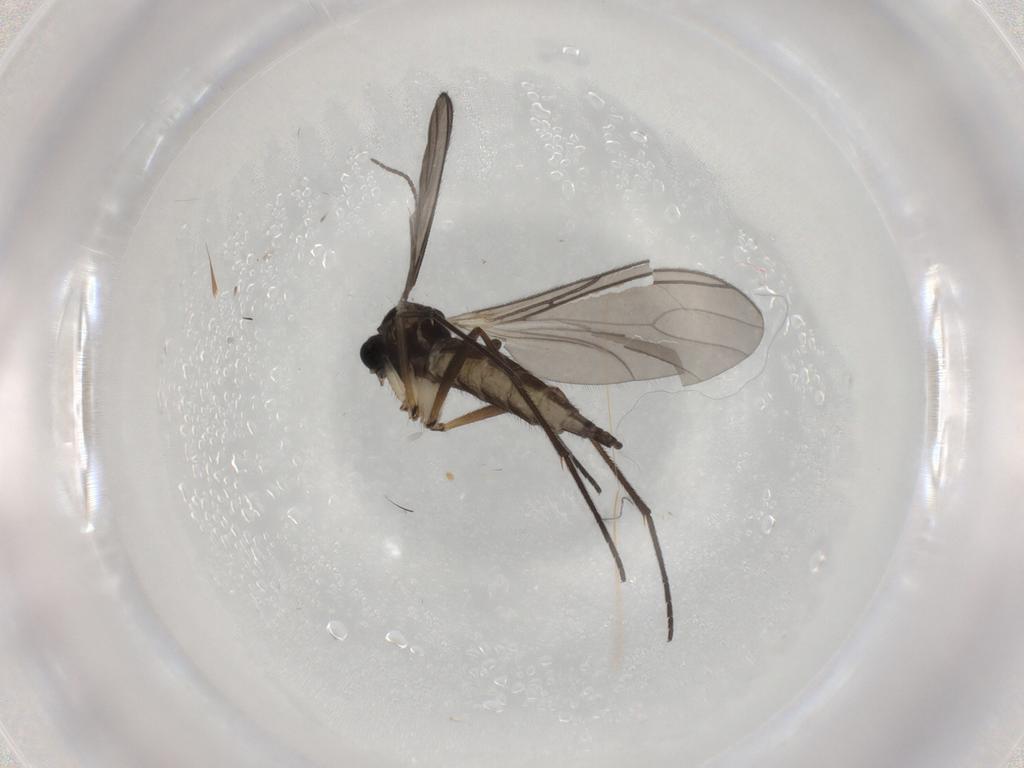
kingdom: Animalia
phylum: Arthropoda
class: Insecta
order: Diptera
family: Sciaridae
